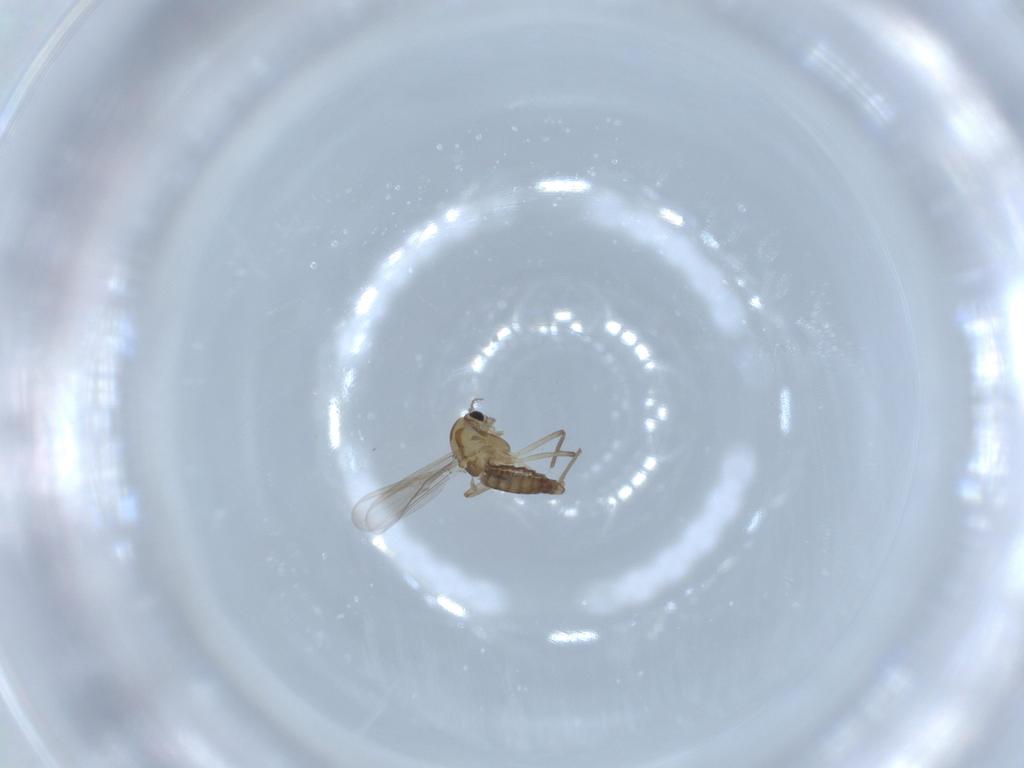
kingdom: Animalia
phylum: Arthropoda
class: Insecta
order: Diptera
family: Chironomidae
